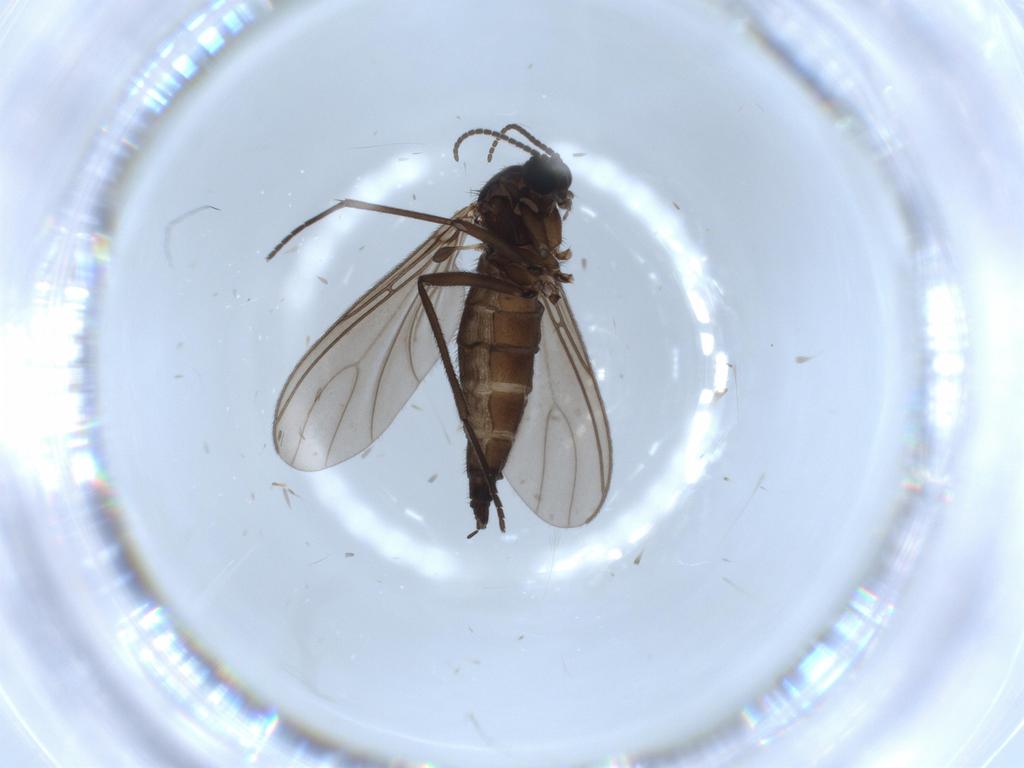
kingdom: Animalia
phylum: Arthropoda
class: Insecta
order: Diptera
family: Sciaridae
